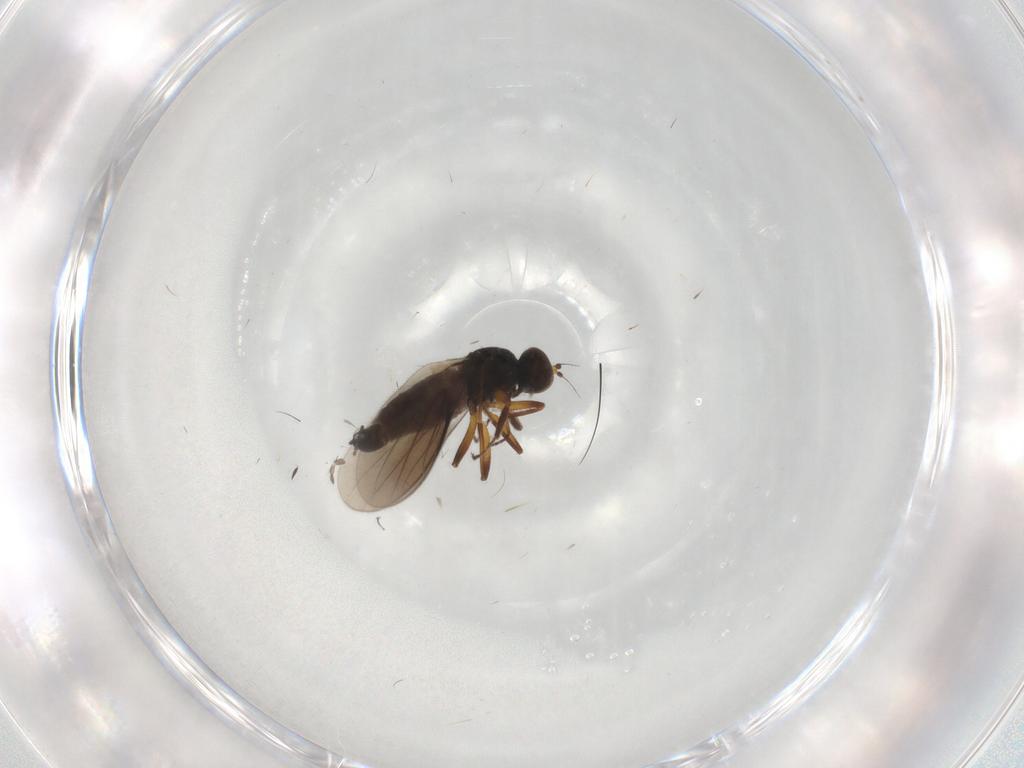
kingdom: Animalia
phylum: Arthropoda
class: Insecta
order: Diptera
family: Hybotidae
